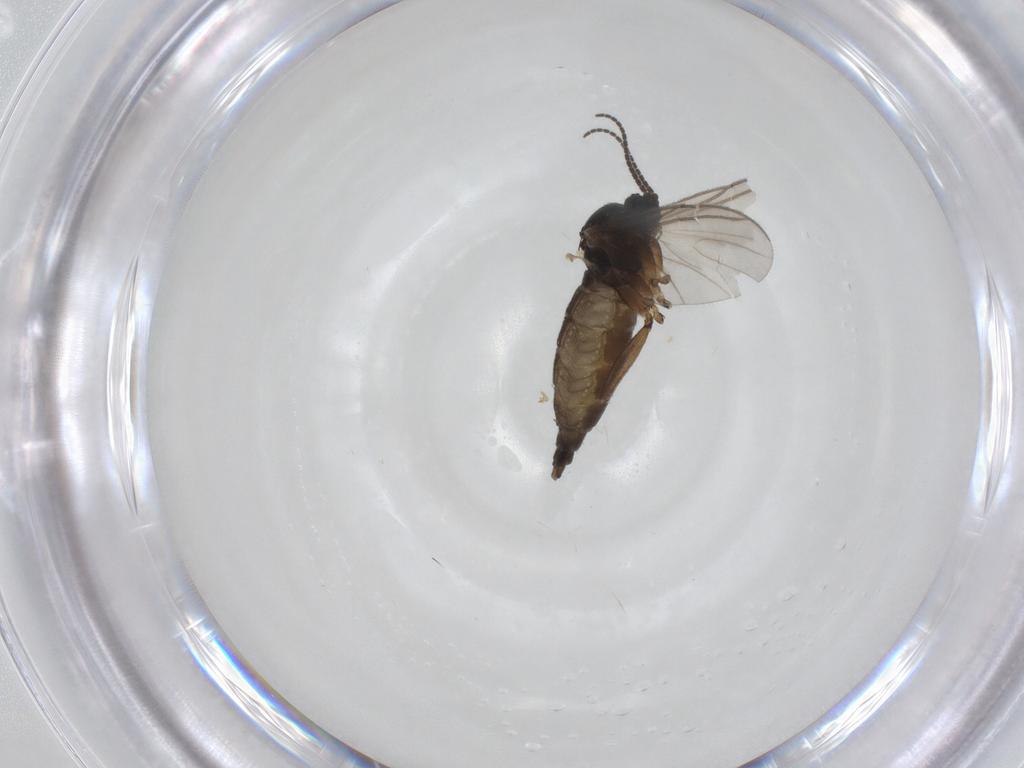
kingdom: Animalia
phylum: Arthropoda
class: Insecta
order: Diptera
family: Sciaridae
